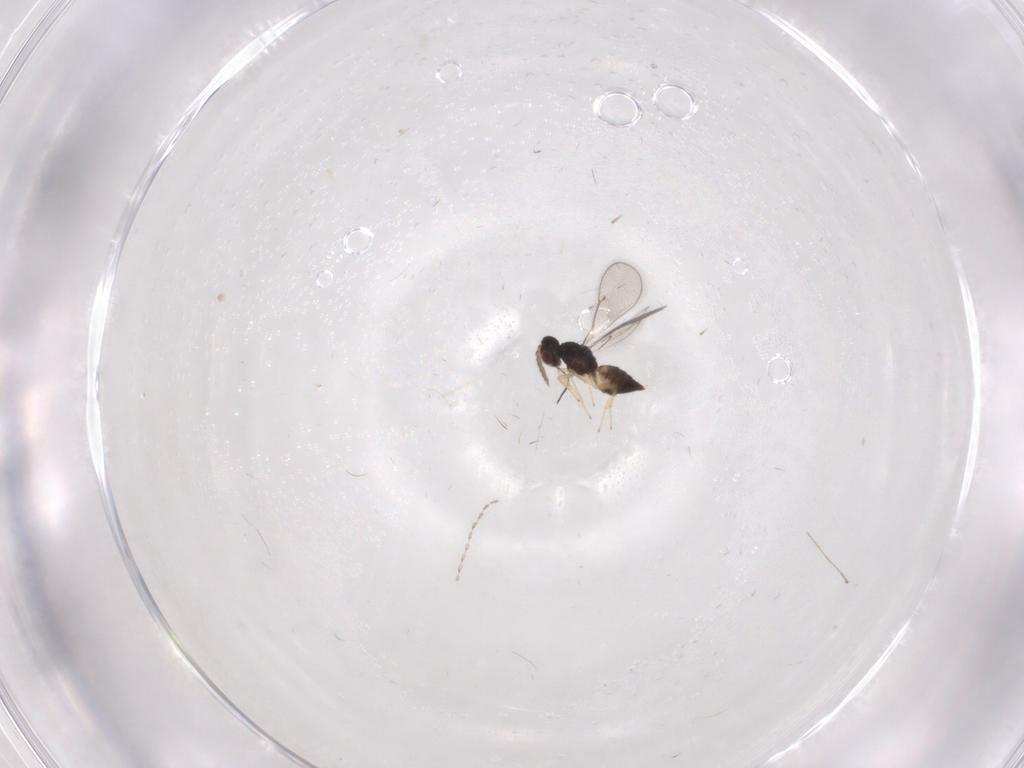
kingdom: Animalia
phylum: Arthropoda
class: Insecta
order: Hymenoptera
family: Eulophidae
